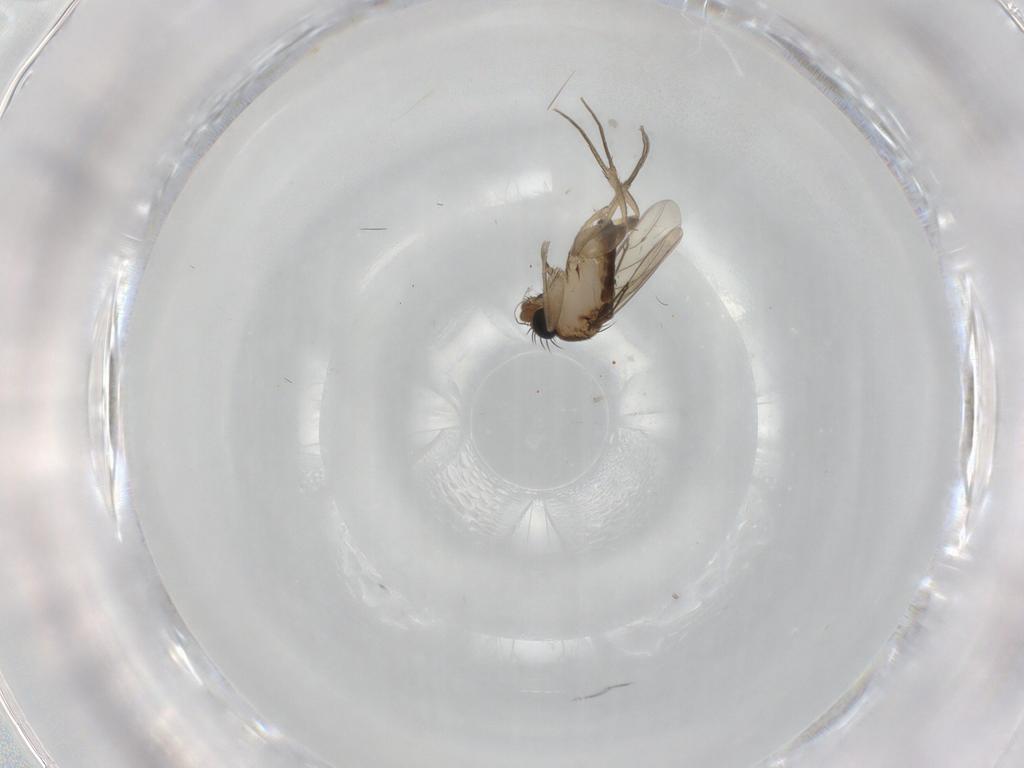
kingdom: Animalia
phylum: Arthropoda
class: Insecta
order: Diptera
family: Phoridae
